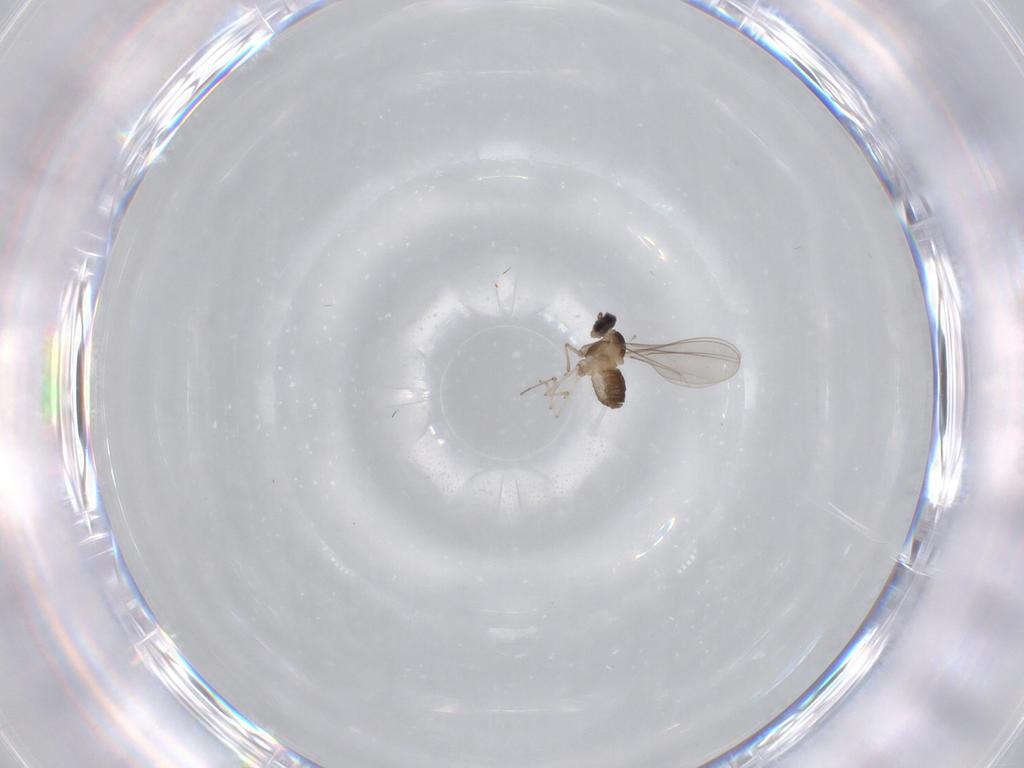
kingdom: Animalia
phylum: Arthropoda
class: Insecta
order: Diptera
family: Cecidomyiidae
